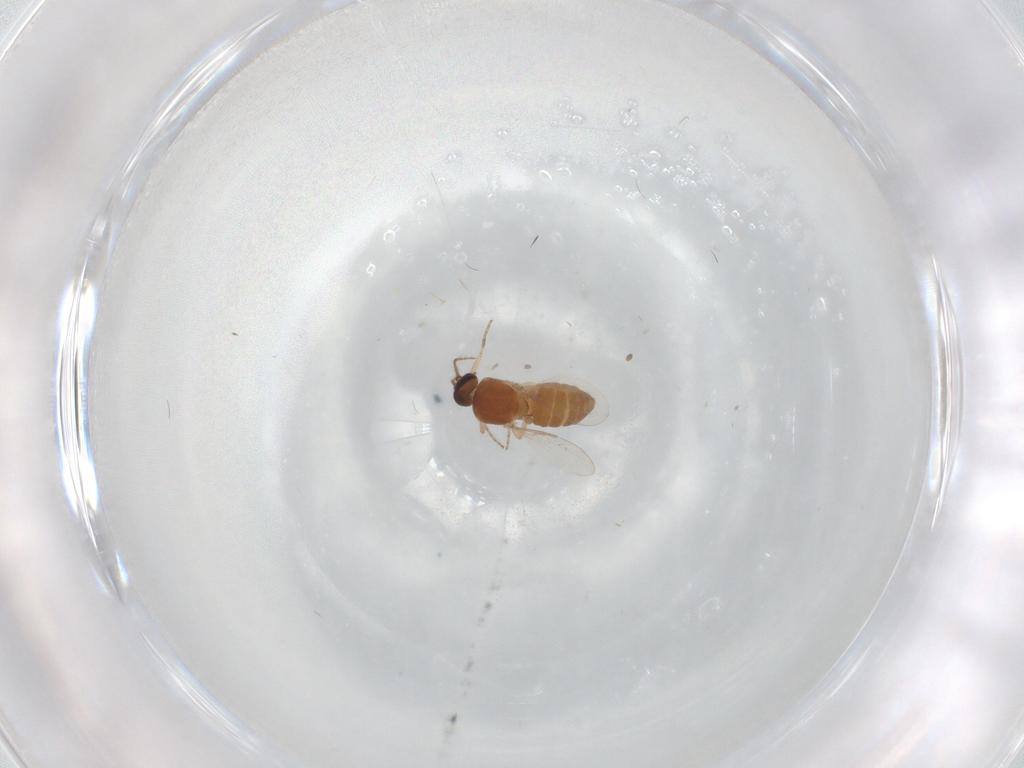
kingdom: Animalia
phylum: Arthropoda
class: Insecta
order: Diptera
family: Ceratopogonidae
